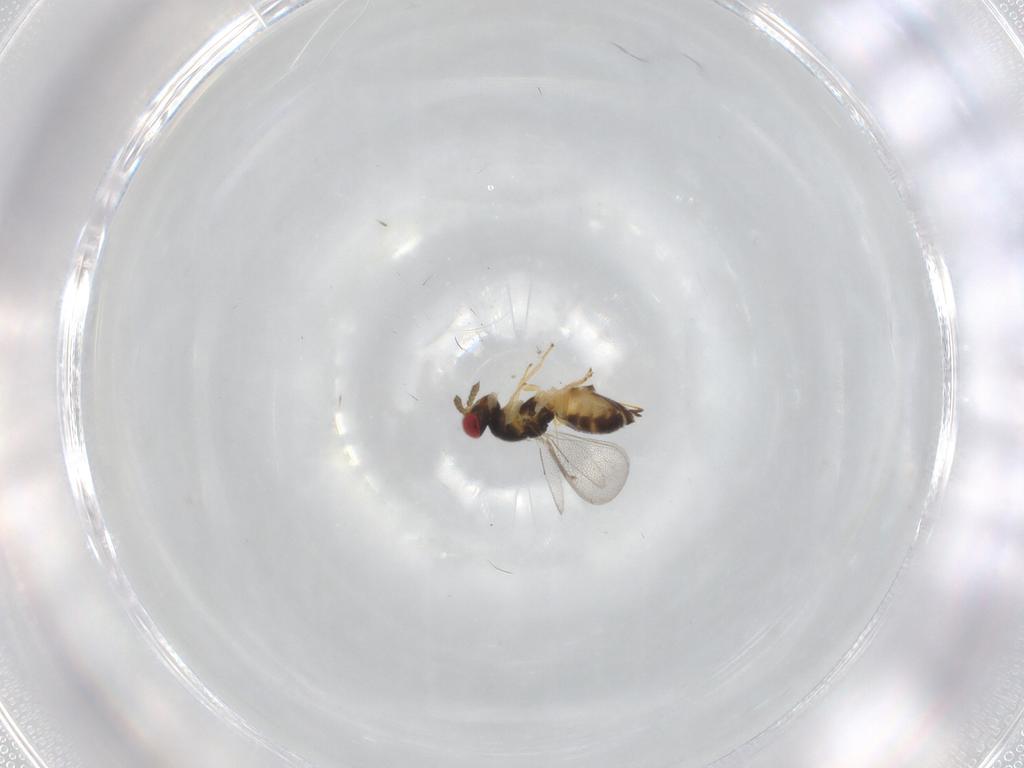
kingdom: Animalia
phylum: Arthropoda
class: Insecta
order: Hymenoptera
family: Eulophidae
